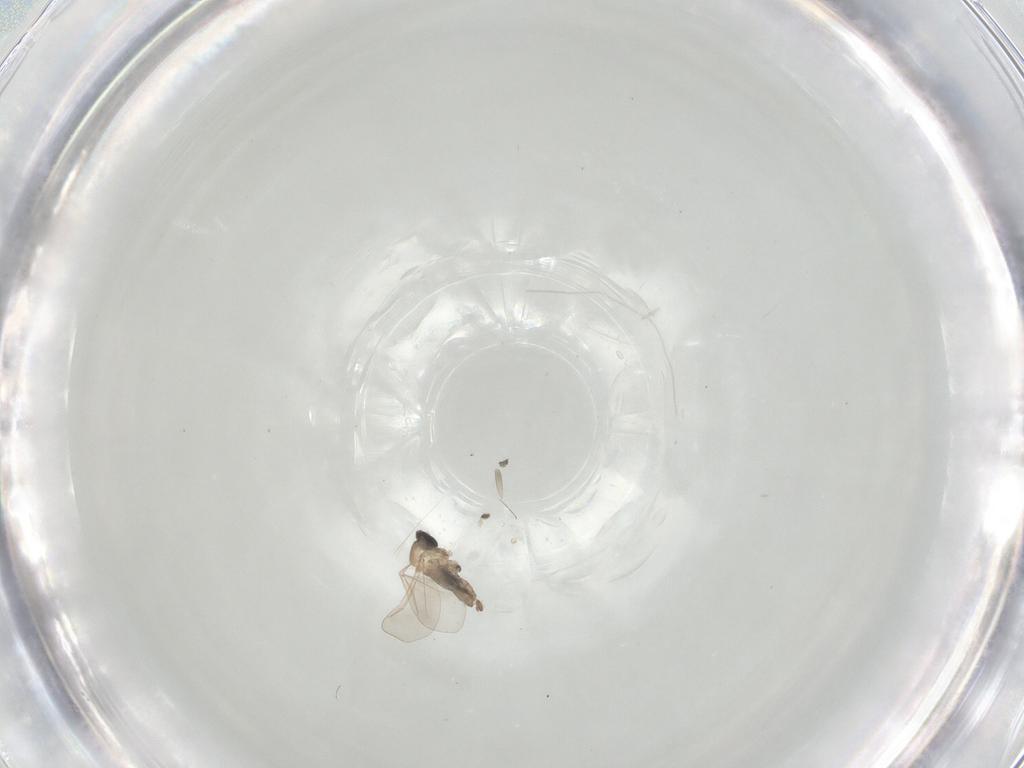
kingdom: Animalia
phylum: Arthropoda
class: Insecta
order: Diptera
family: Cecidomyiidae
